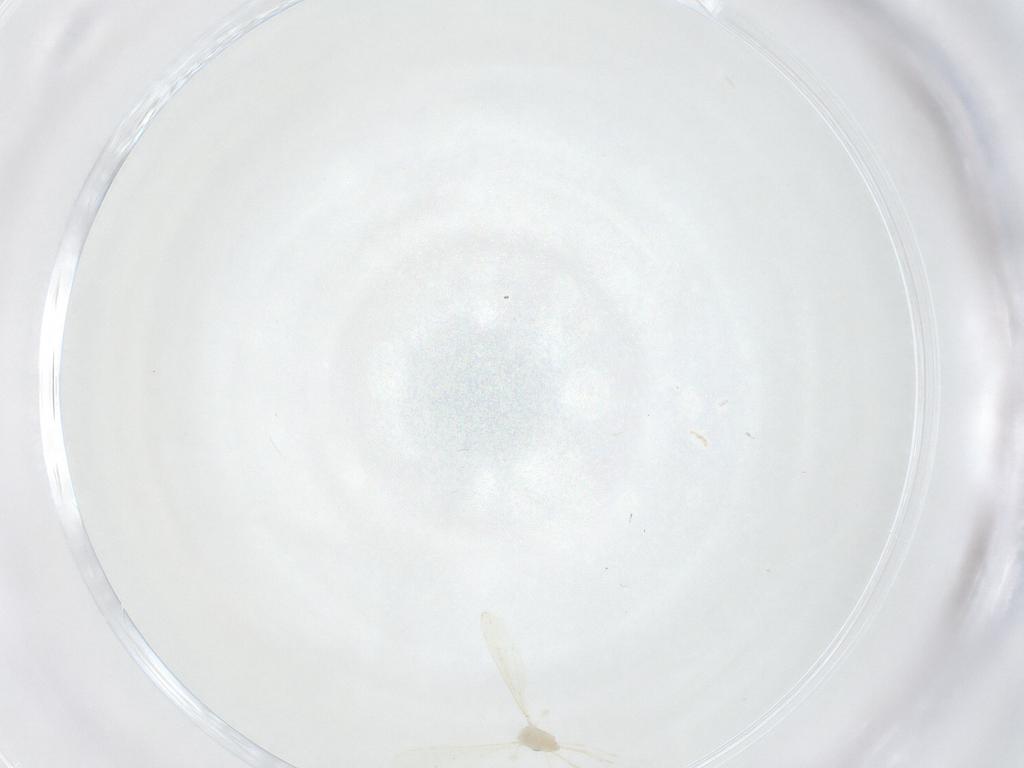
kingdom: Animalia
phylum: Arthropoda
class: Insecta
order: Diptera
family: Cecidomyiidae
